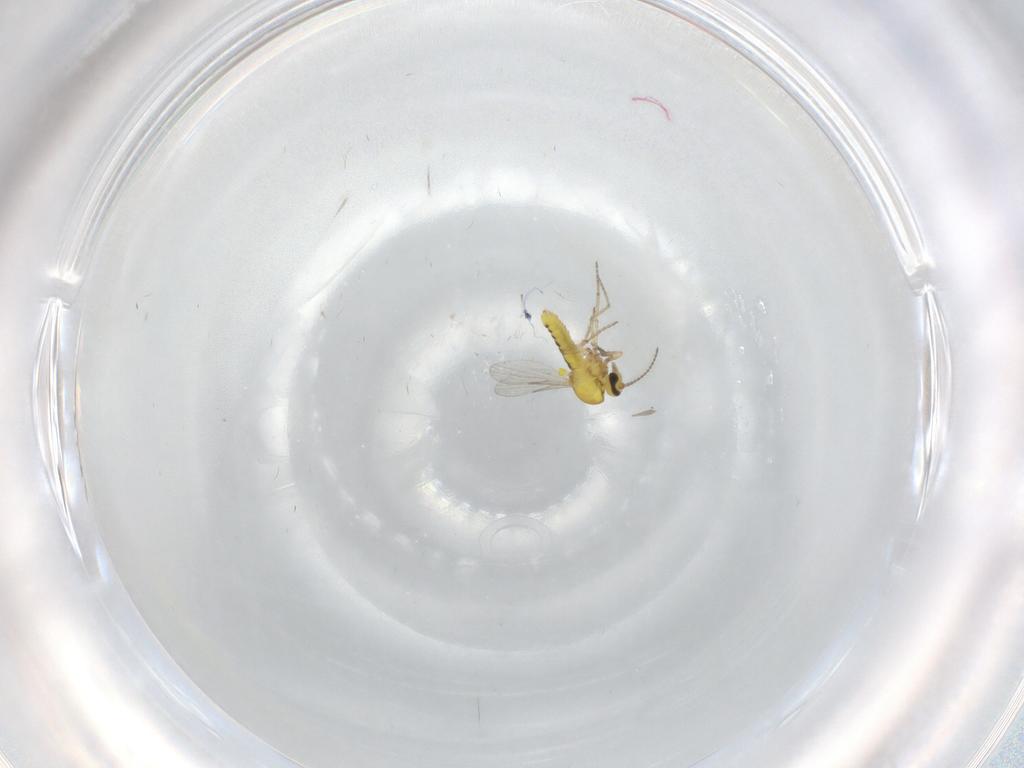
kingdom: Animalia
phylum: Arthropoda
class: Insecta
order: Diptera
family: Ceratopogonidae
